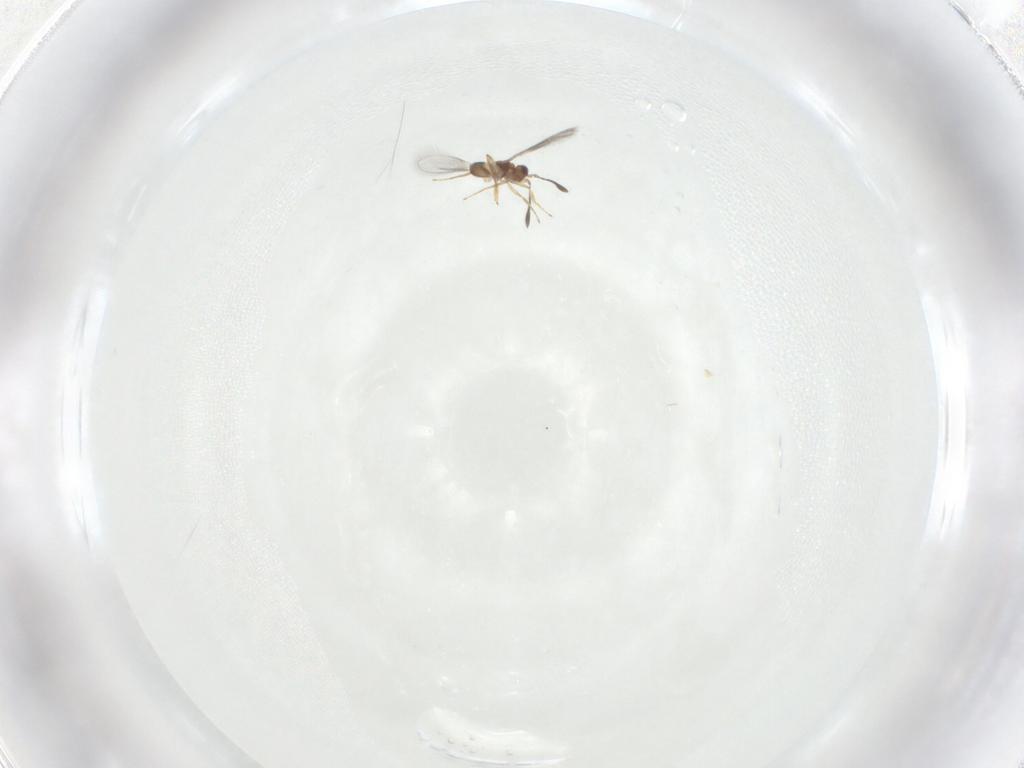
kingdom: Animalia
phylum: Arthropoda
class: Insecta
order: Hymenoptera
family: Mymaridae
